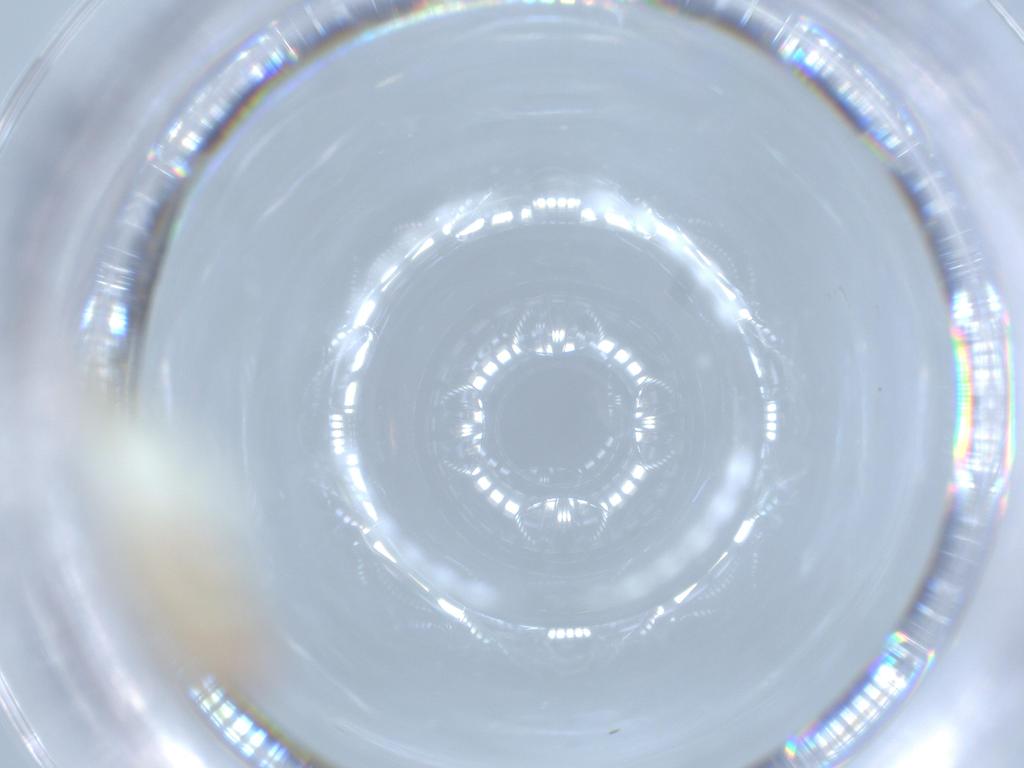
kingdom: Animalia
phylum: Arthropoda
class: Insecta
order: Hemiptera
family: Cicadellidae
